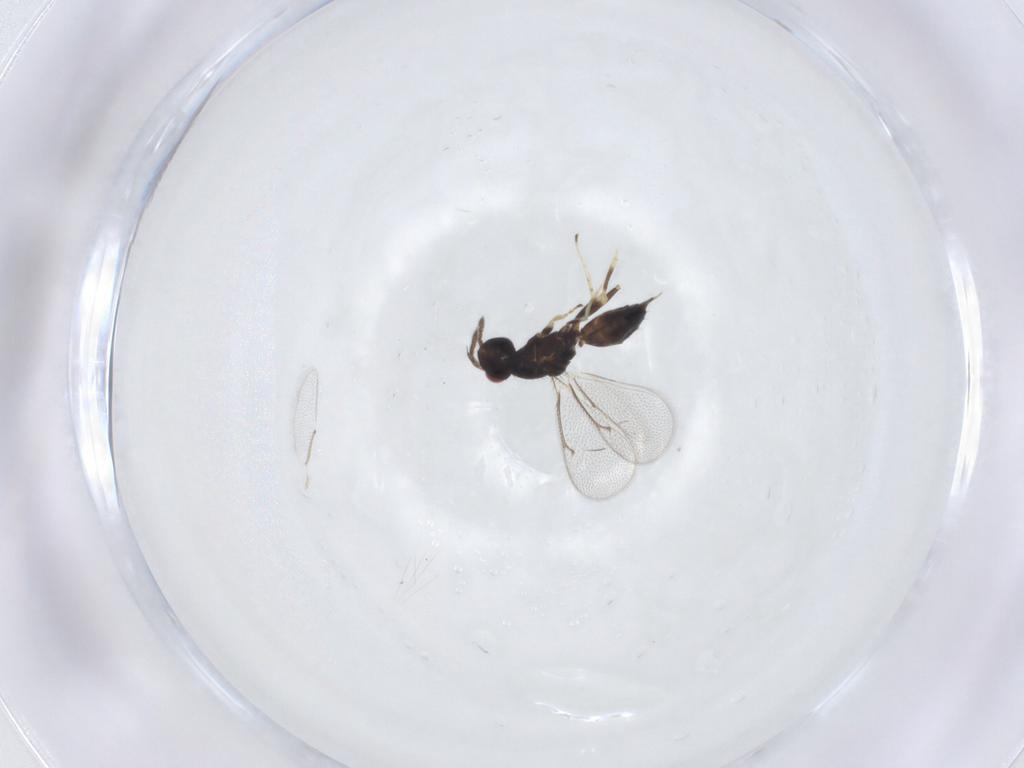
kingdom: Animalia
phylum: Arthropoda
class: Insecta
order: Hymenoptera
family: Eulophidae
